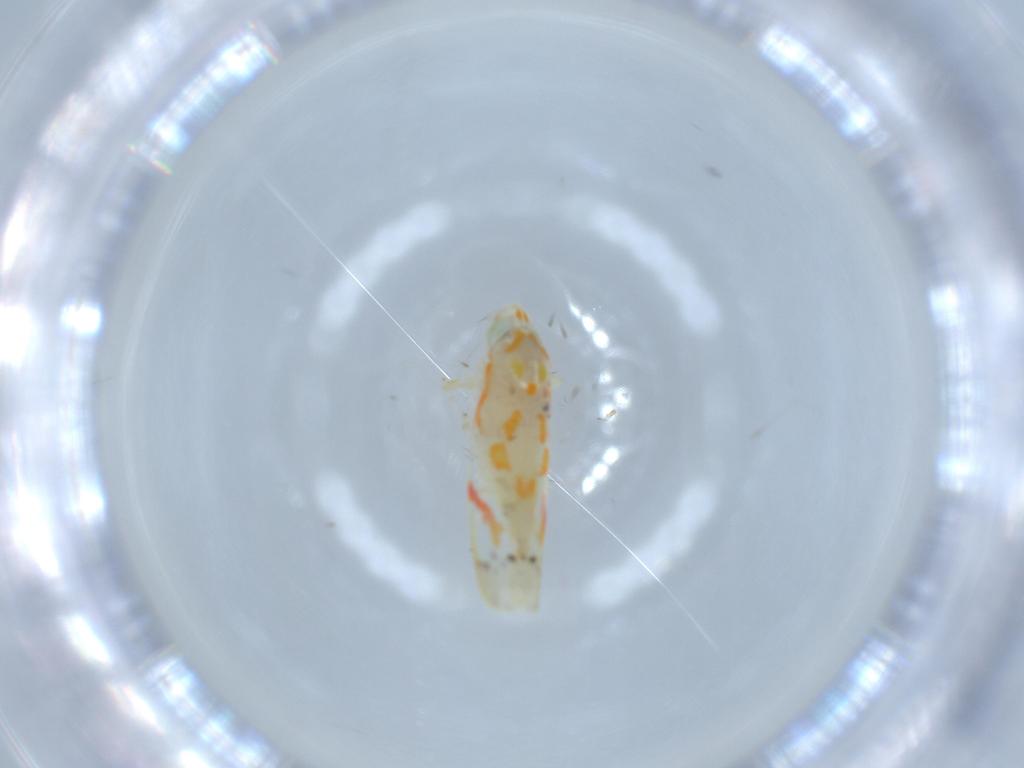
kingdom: Animalia
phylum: Arthropoda
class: Insecta
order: Hemiptera
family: Cicadellidae
